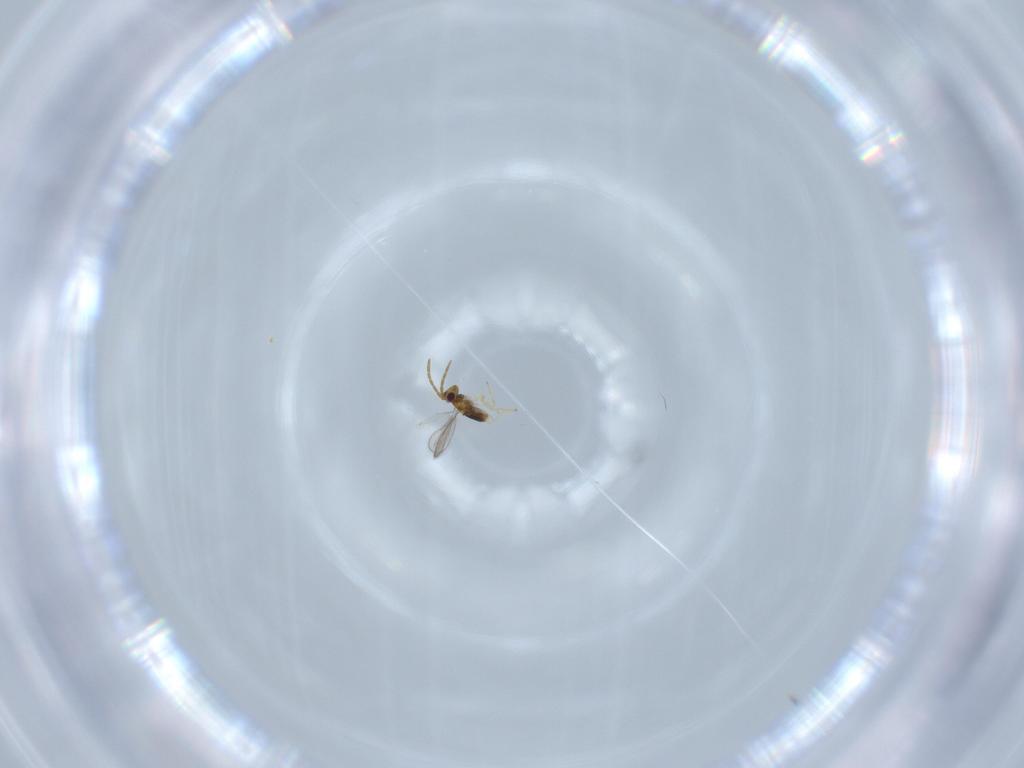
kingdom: Animalia
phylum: Arthropoda
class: Insecta
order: Hymenoptera
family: Aphelinidae
